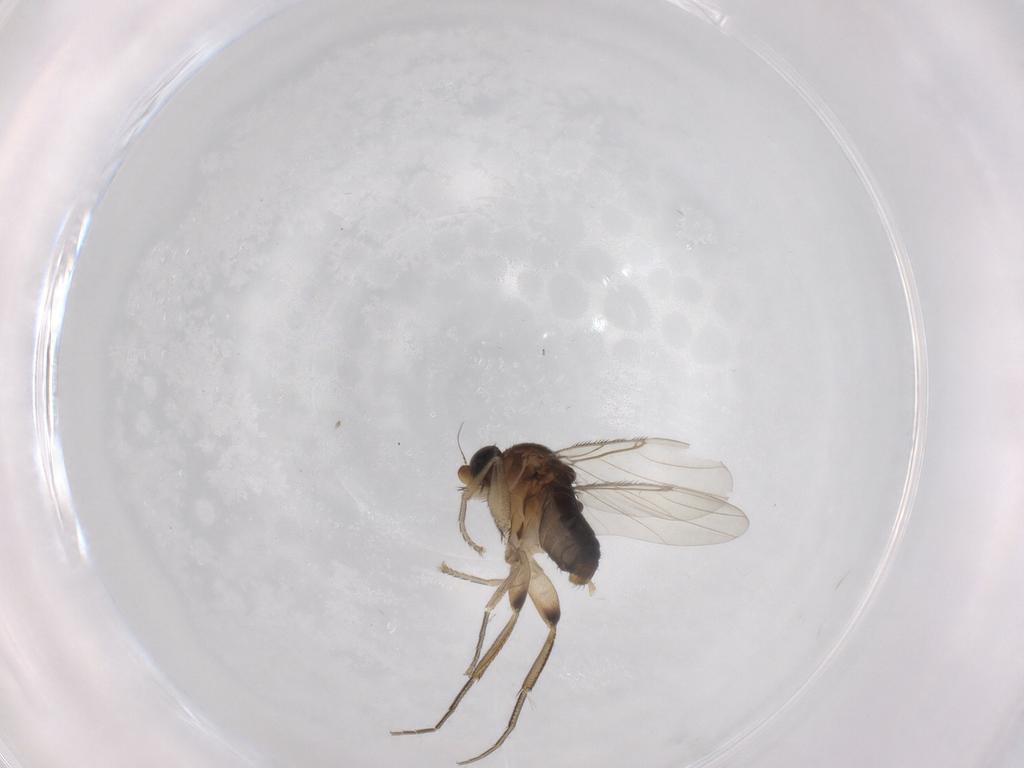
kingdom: Animalia
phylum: Arthropoda
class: Insecta
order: Diptera
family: Phoridae
